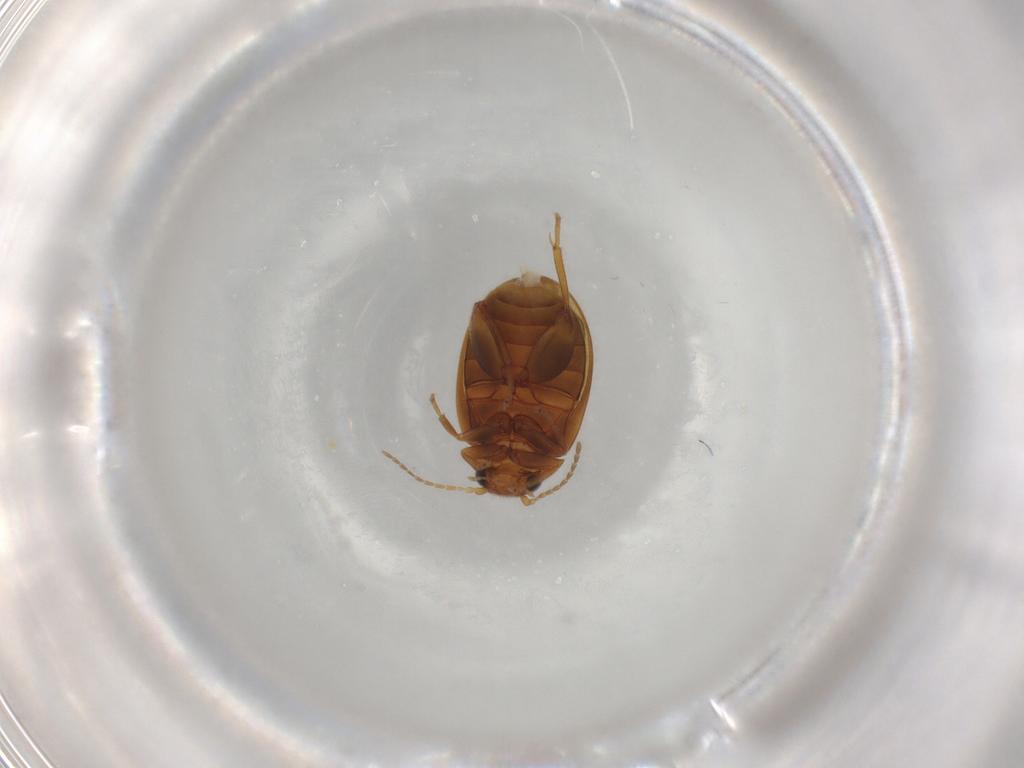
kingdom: Animalia
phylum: Arthropoda
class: Insecta
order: Coleoptera
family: Scirtidae
